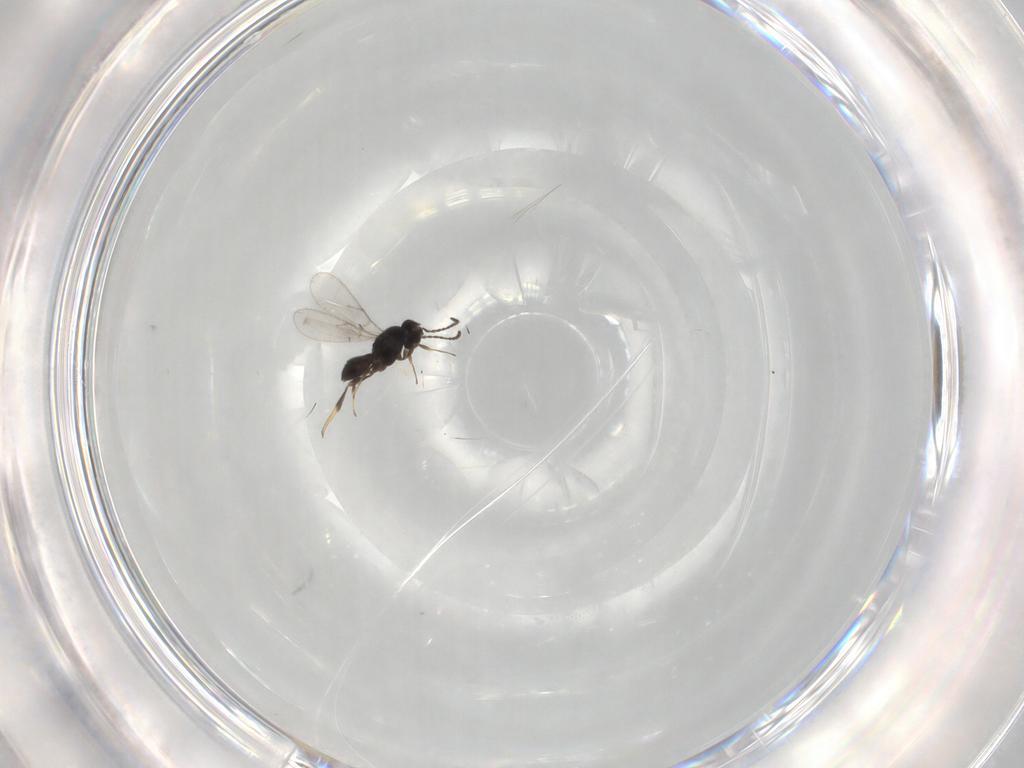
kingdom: Animalia
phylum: Arthropoda
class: Insecta
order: Hymenoptera
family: Scelionidae
